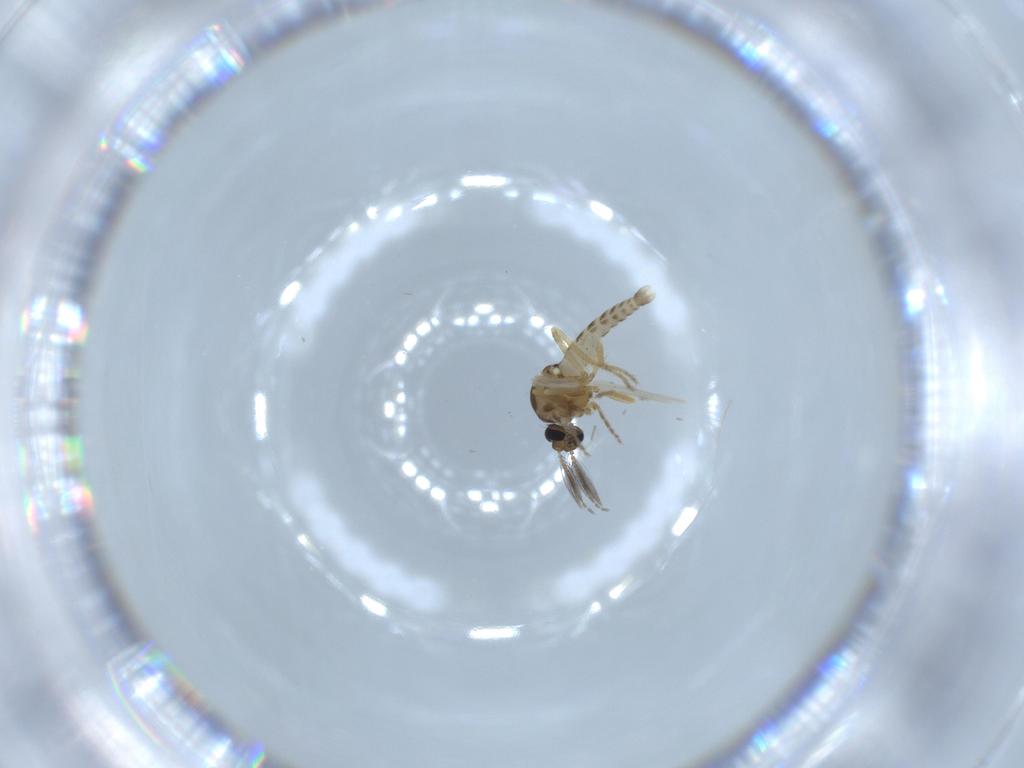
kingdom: Animalia
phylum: Arthropoda
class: Insecta
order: Diptera
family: Ceratopogonidae
